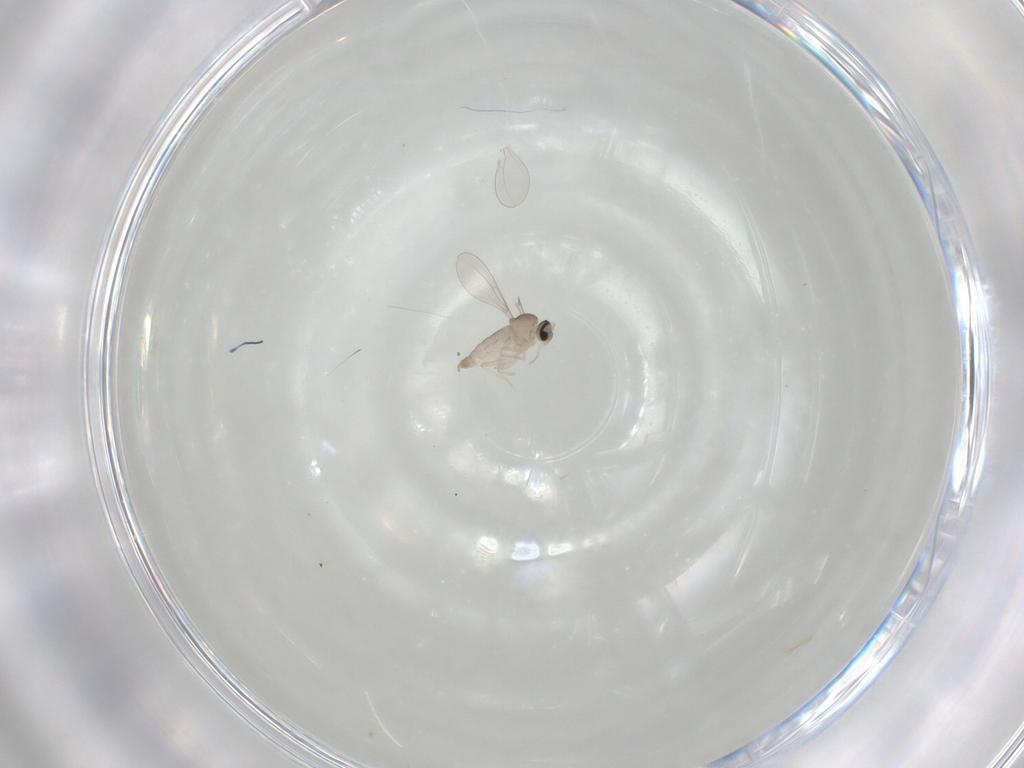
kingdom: Animalia
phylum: Arthropoda
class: Insecta
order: Diptera
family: Cecidomyiidae
